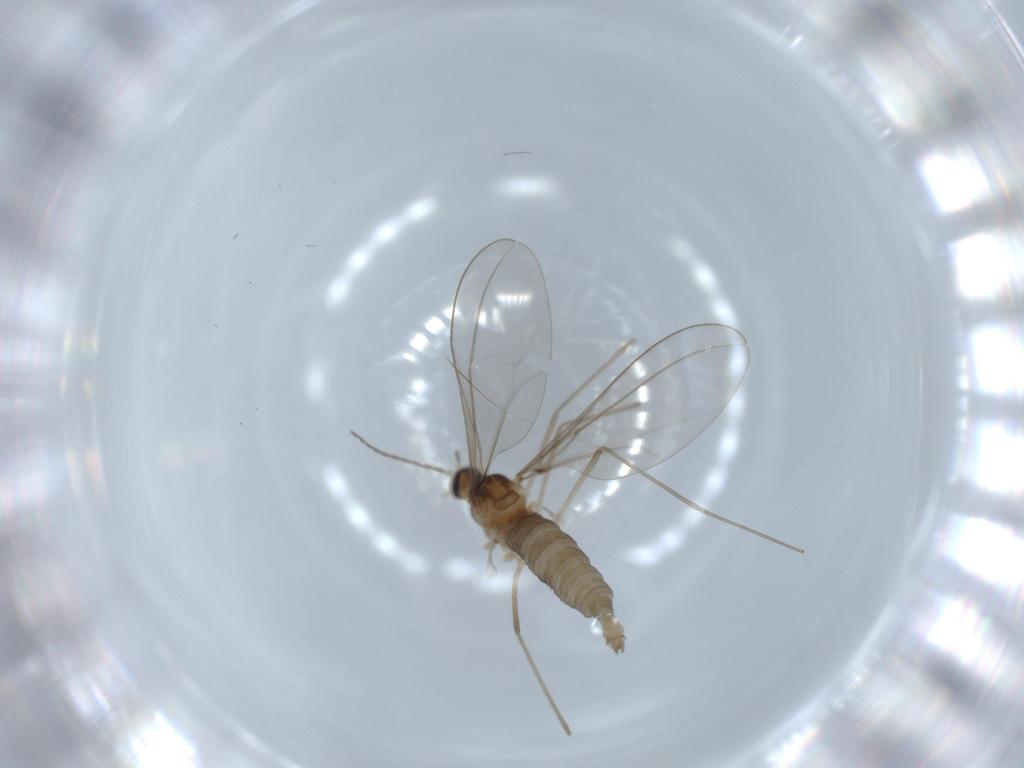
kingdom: Animalia
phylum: Arthropoda
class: Insecta
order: Diptera
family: Cecidomyiidae
